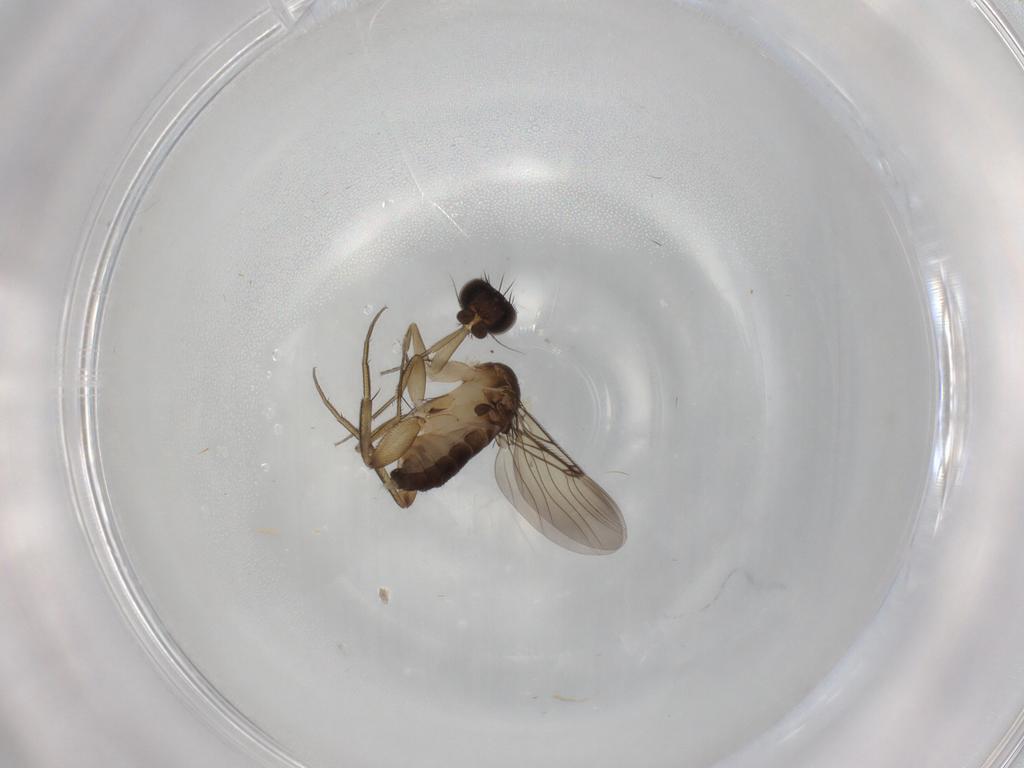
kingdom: Animalia
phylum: Arthropoda
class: Insecta
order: Diptera
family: Phoridae
